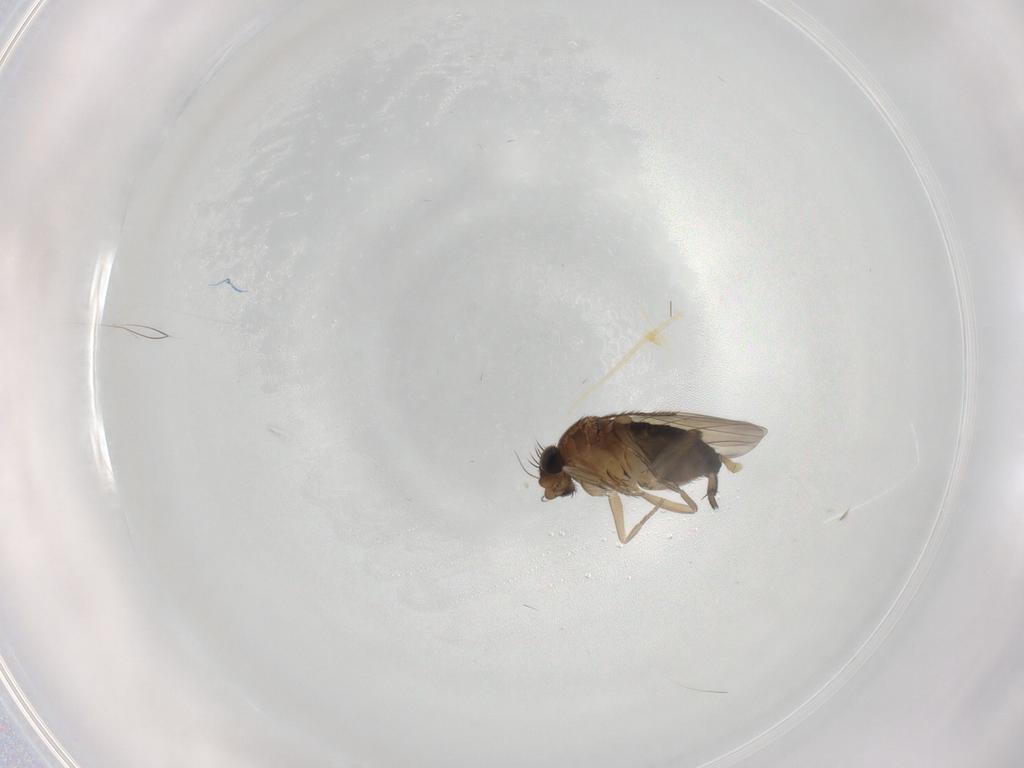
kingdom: Animalia
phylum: Arthropoda
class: Insecta
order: Diptera
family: Phoridae
